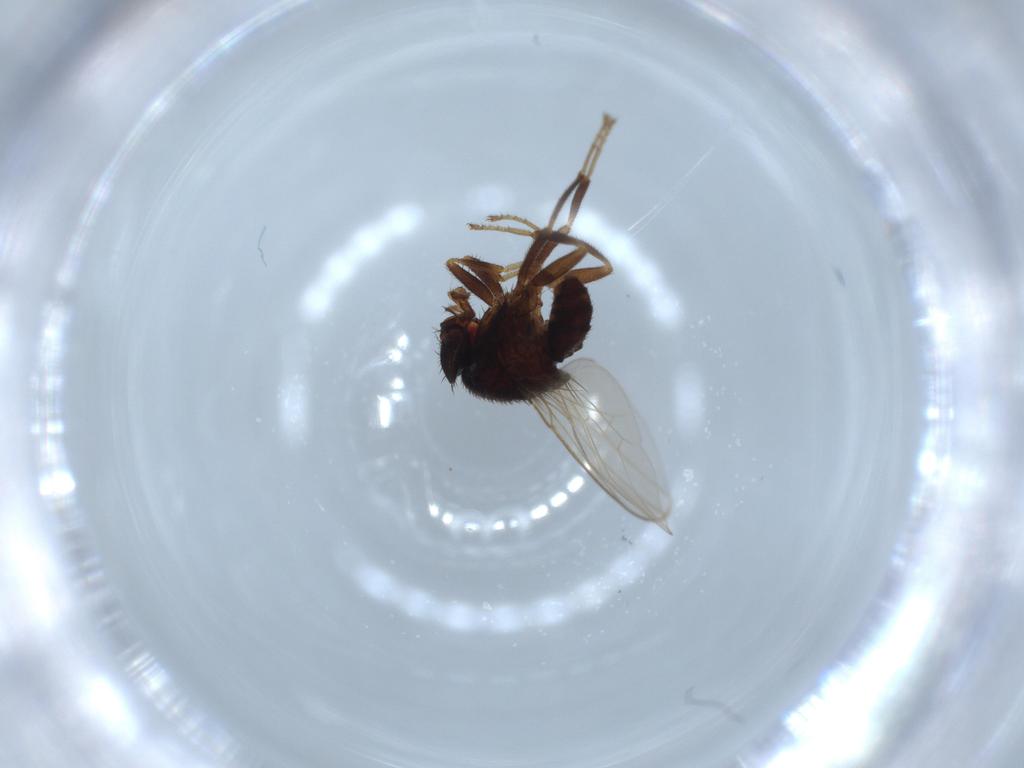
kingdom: Animalia
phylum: Arthropoda
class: Insecta
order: Diptera
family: Drosophilidae
